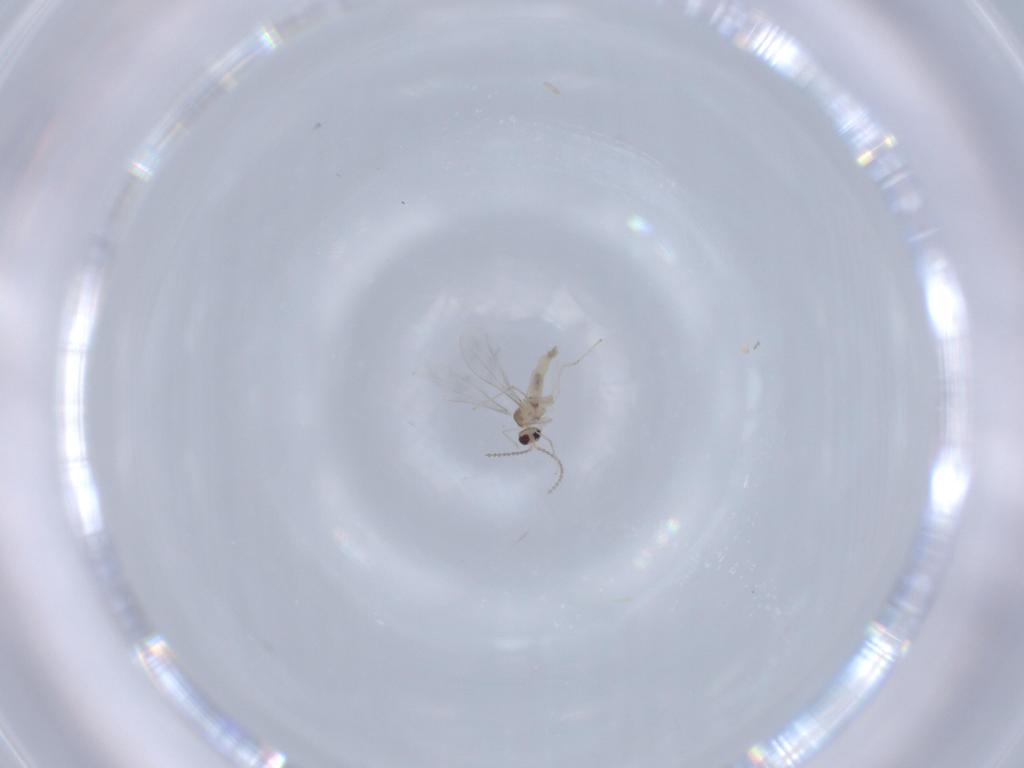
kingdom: Animalia
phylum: Arthropoda
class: Insecta
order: Diptera
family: Cecidomyiidae
